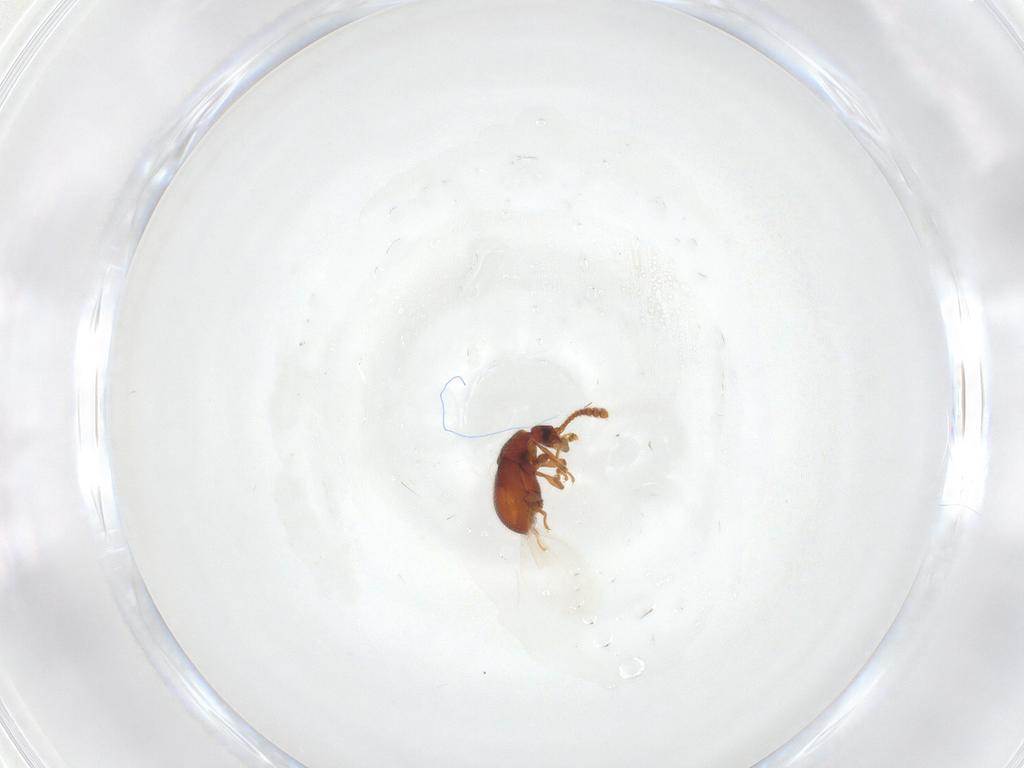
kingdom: Animalia
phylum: Arthropoda
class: Insecta
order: Coleoptera
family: Staphylinidae
